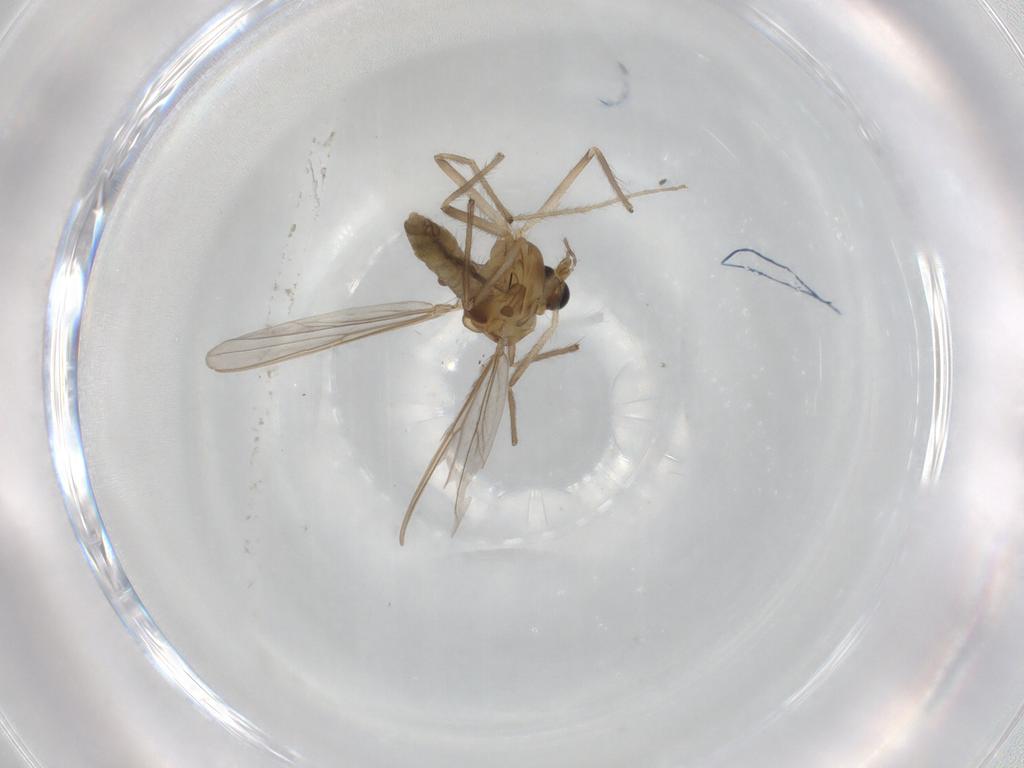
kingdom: Animalia
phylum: Arthropoda
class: Insecta
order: Diptera
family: Chironomidae
